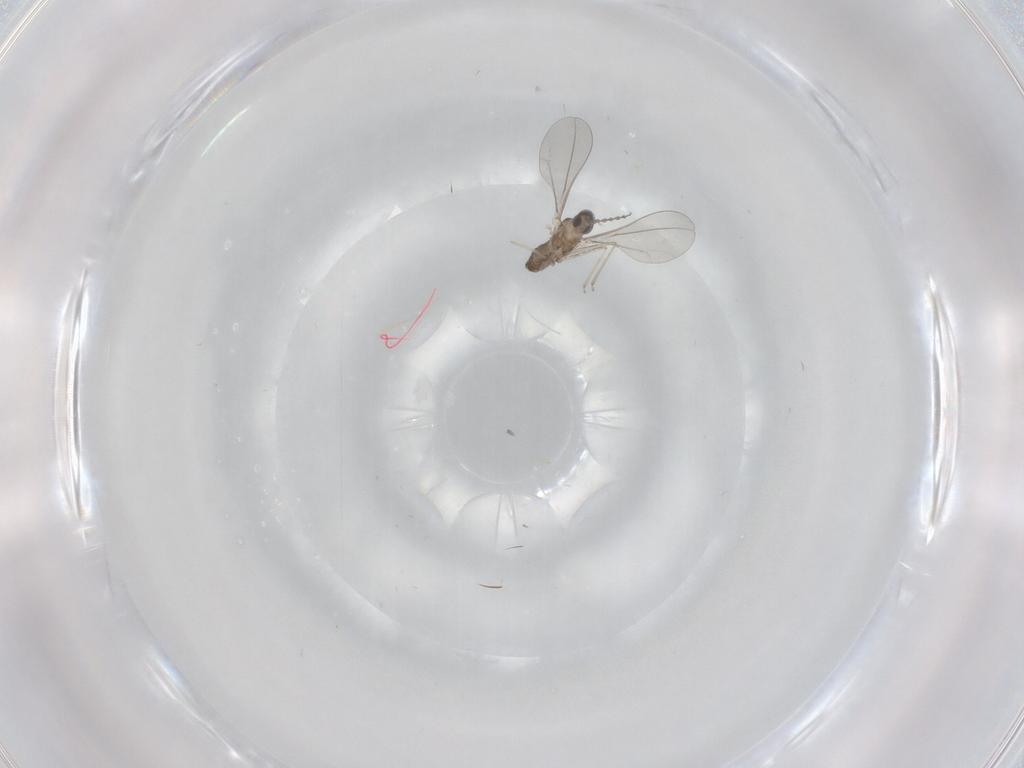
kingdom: Animalia
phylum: Arthropoda
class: Insecta
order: Diptera
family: Cecidomyiidae
